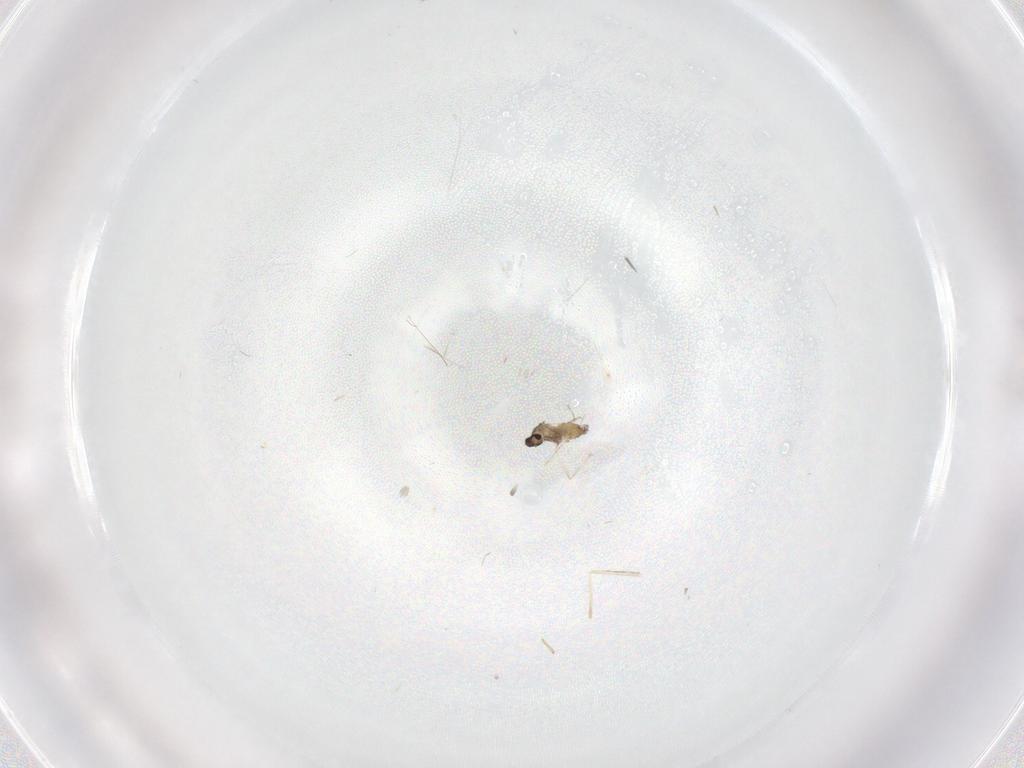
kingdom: Animalia
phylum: Arthropoda
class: Insecta
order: Diptera
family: Cecidomyiidae
